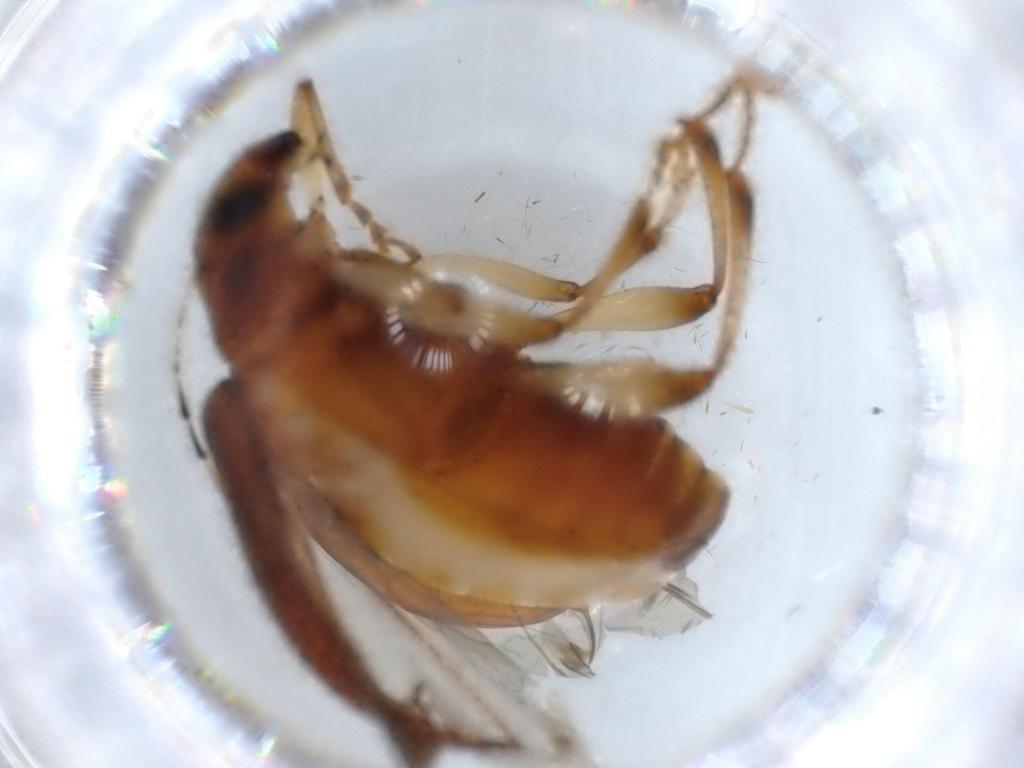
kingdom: Animalia
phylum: Arthropoda
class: Insecta
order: Coleoptera
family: Chrysomelidae
